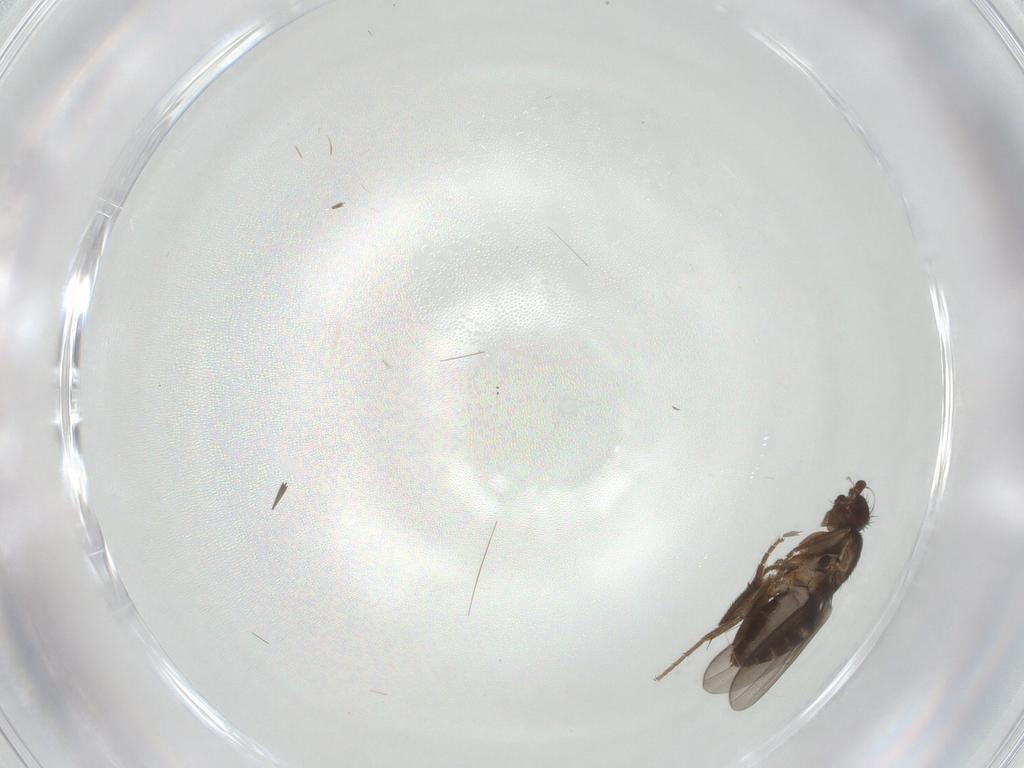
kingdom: Animalia
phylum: Arthropoda
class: Insecta
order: Diptera
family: Sphaeroceridae
